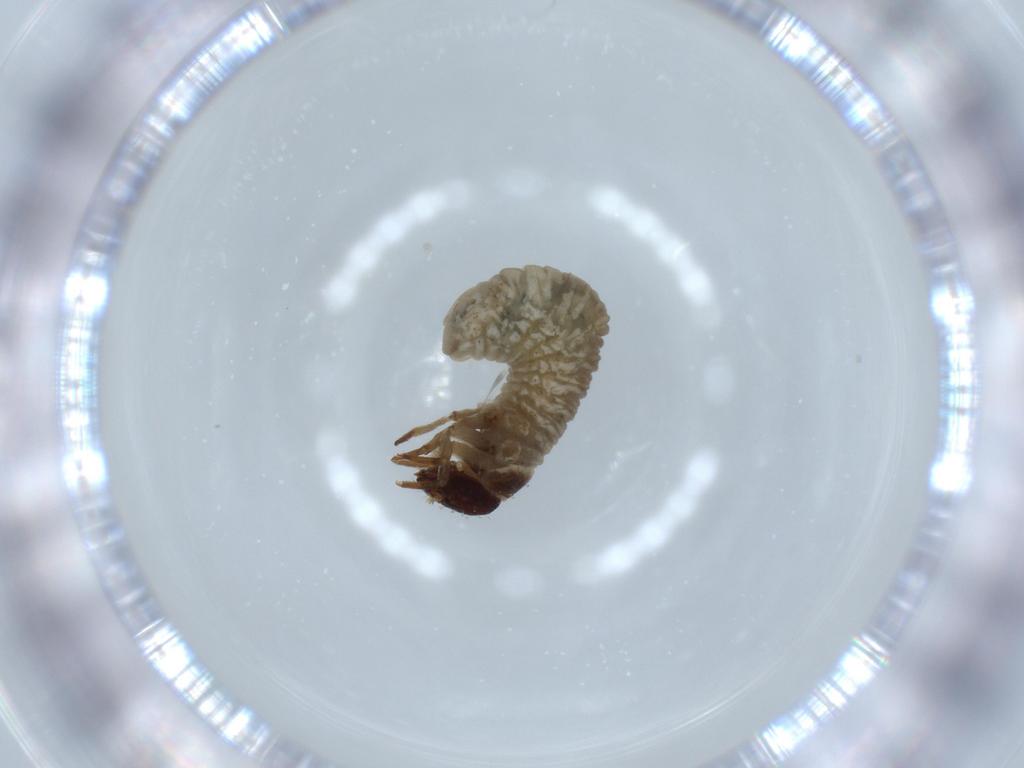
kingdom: Animalia
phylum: Arthropoda
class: Insecta
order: Coleoptera
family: Chrysomelidae
